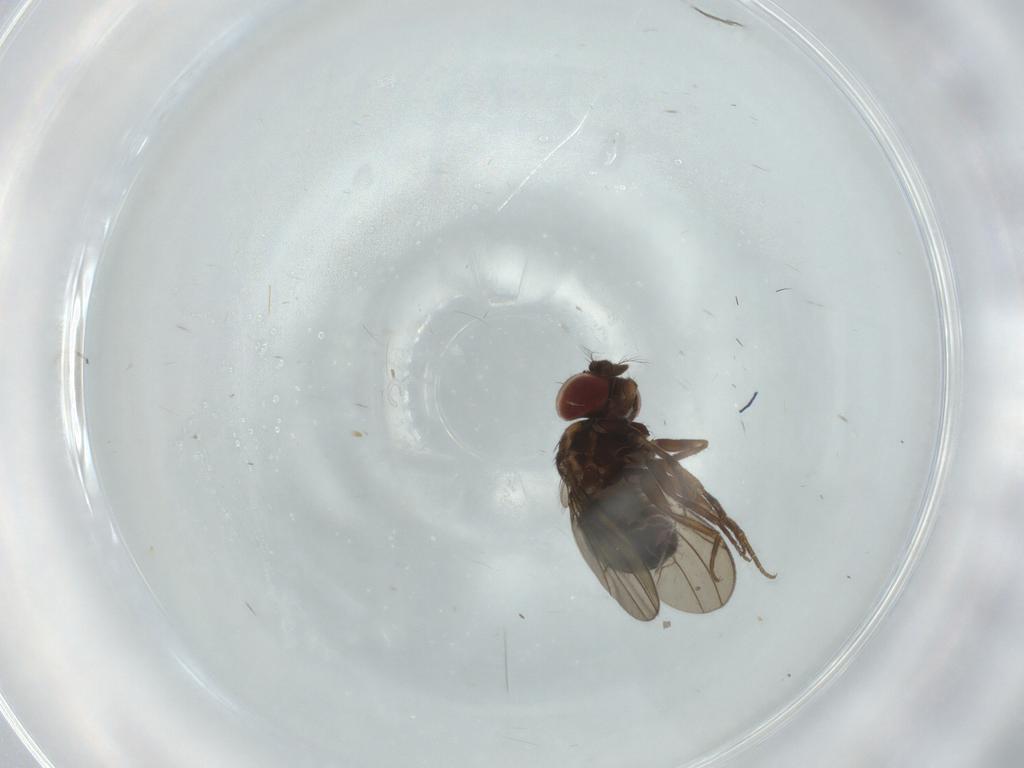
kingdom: Animalia
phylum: Arthropoda
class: Insecta
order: Diptera
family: Drosophilidae
